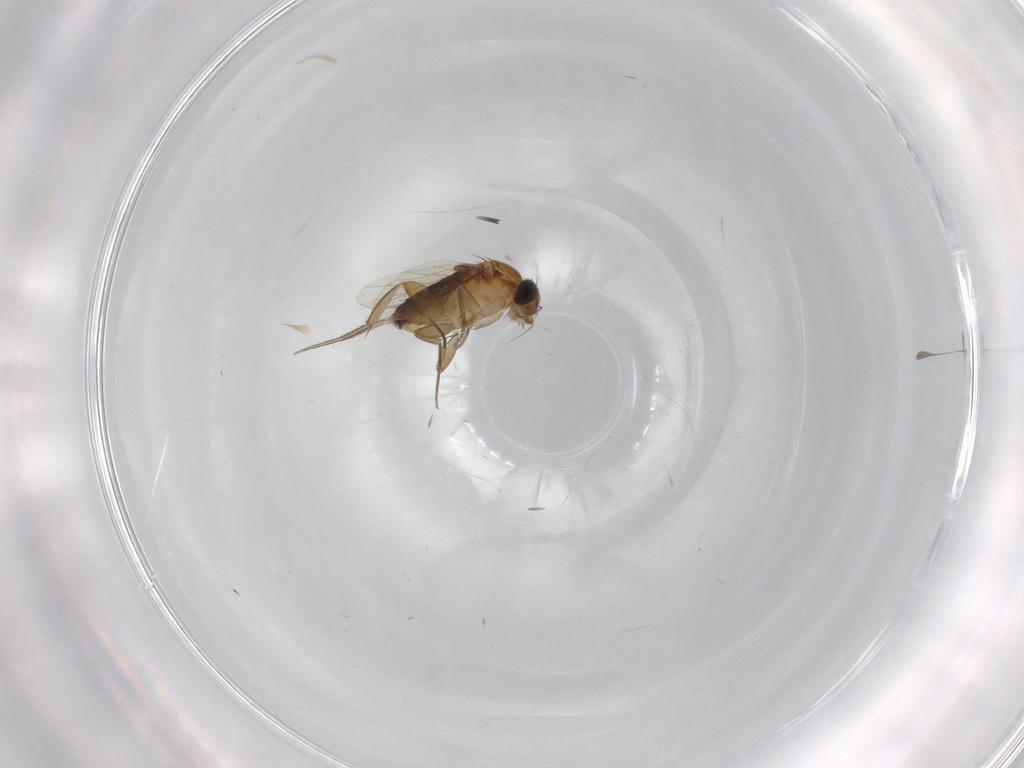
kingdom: Animalia
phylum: Arthropoda
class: Insecta
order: Diptera
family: Phoridae
